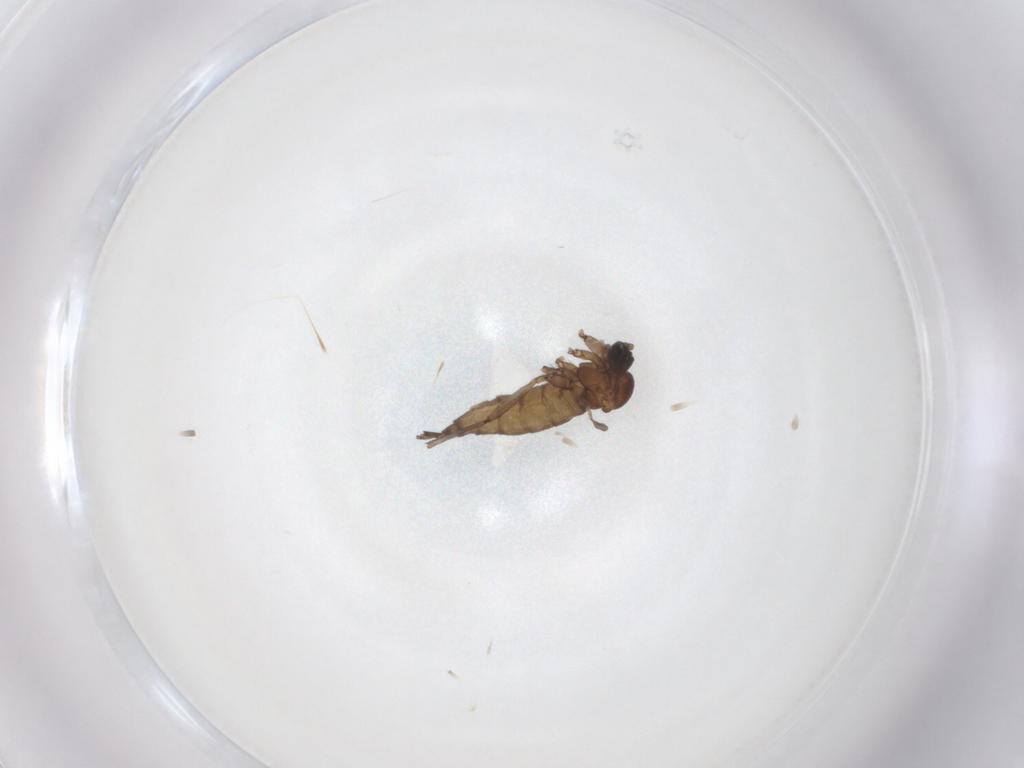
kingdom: Animalia
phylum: Arthropoda
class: Insecta
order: Diptera
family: Sciaridae
